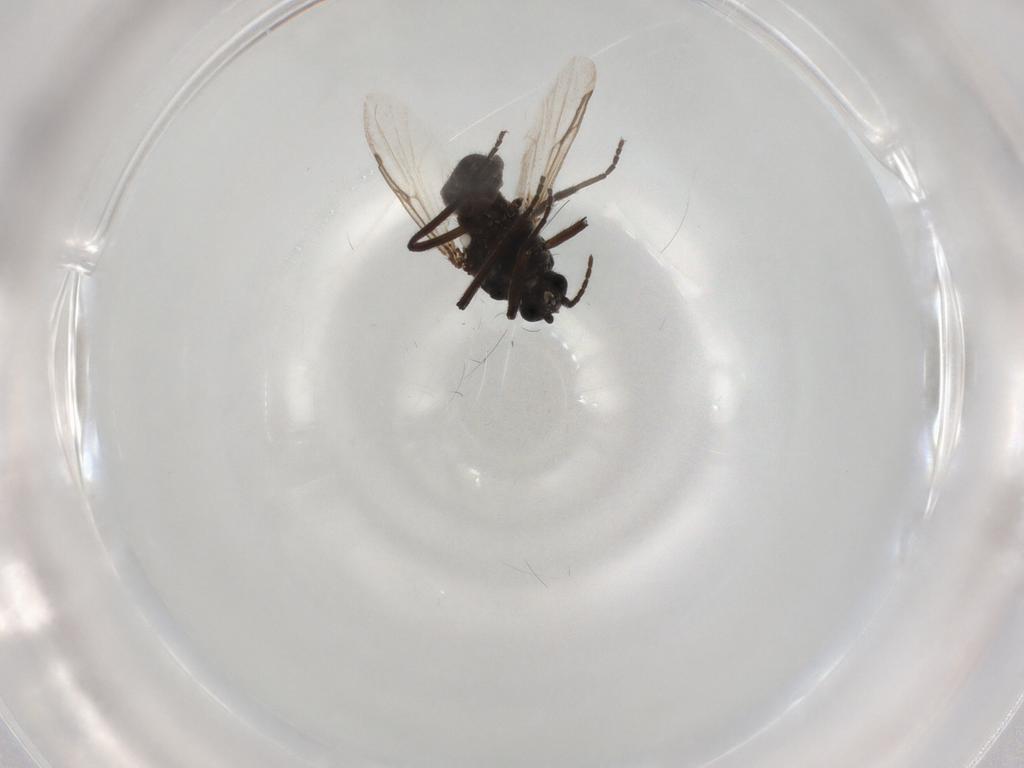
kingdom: Animalia
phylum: Arthropoda
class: Insecta
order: Diptera
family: Ceratopogonidae
